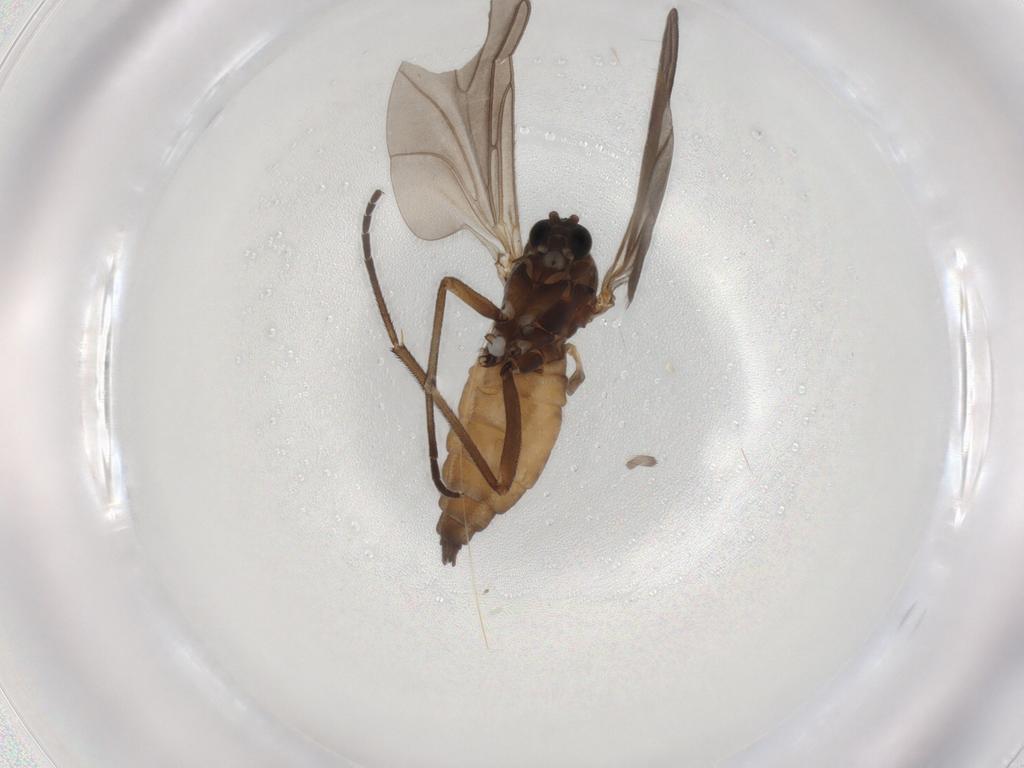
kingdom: Animalia
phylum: Arthropoda
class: Insecta
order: Diptera
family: Sciaridae
